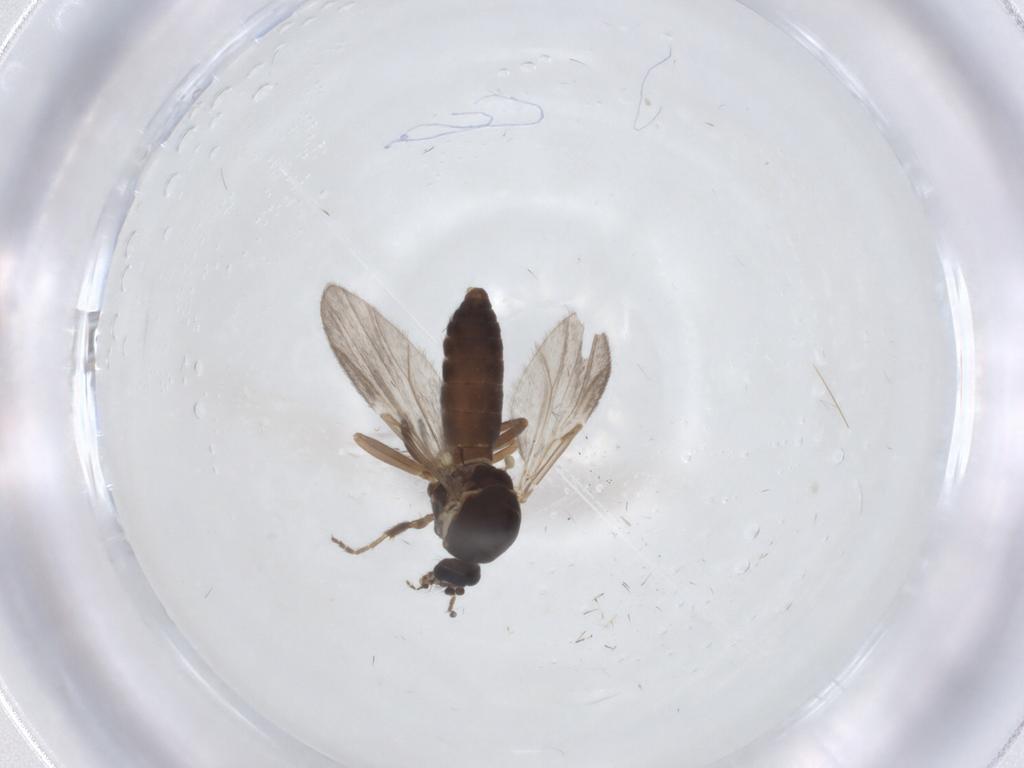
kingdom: Animalia
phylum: Arthropoda
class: Insecta
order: Diptera
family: Ceratopogonidae
